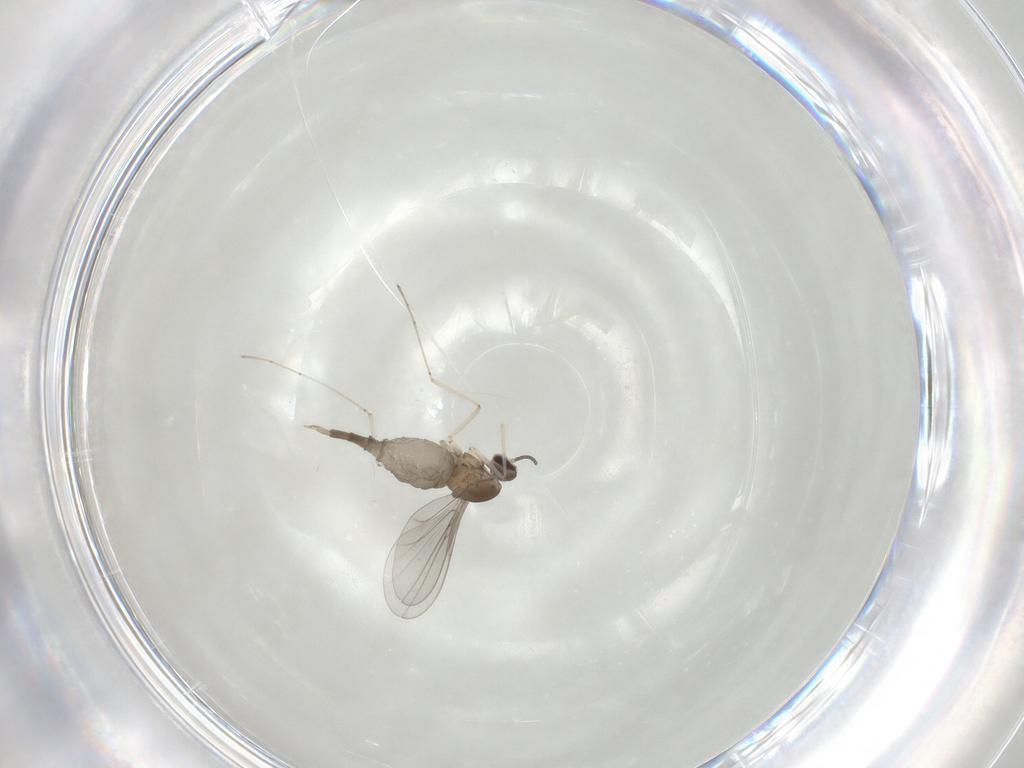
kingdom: Animalia
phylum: Arthropoda
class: Insecta
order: Diptera
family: Cecidomyiidae
